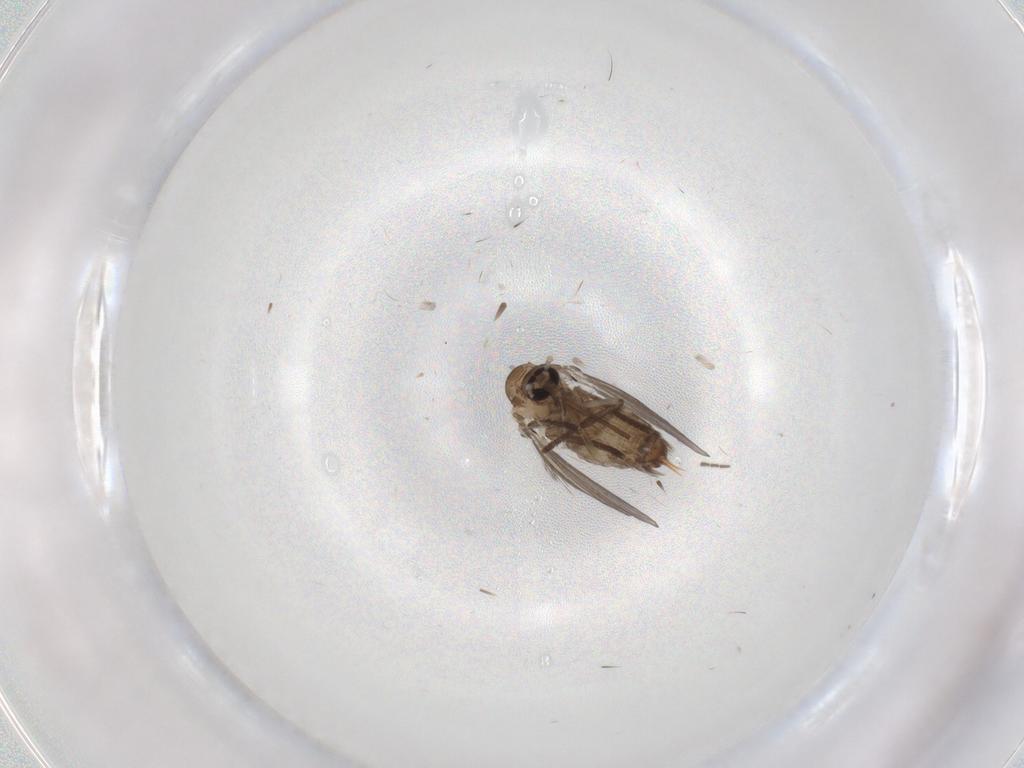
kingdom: Animalia
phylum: Arthropoda
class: Insecta
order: Diptera
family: Psychodidae
